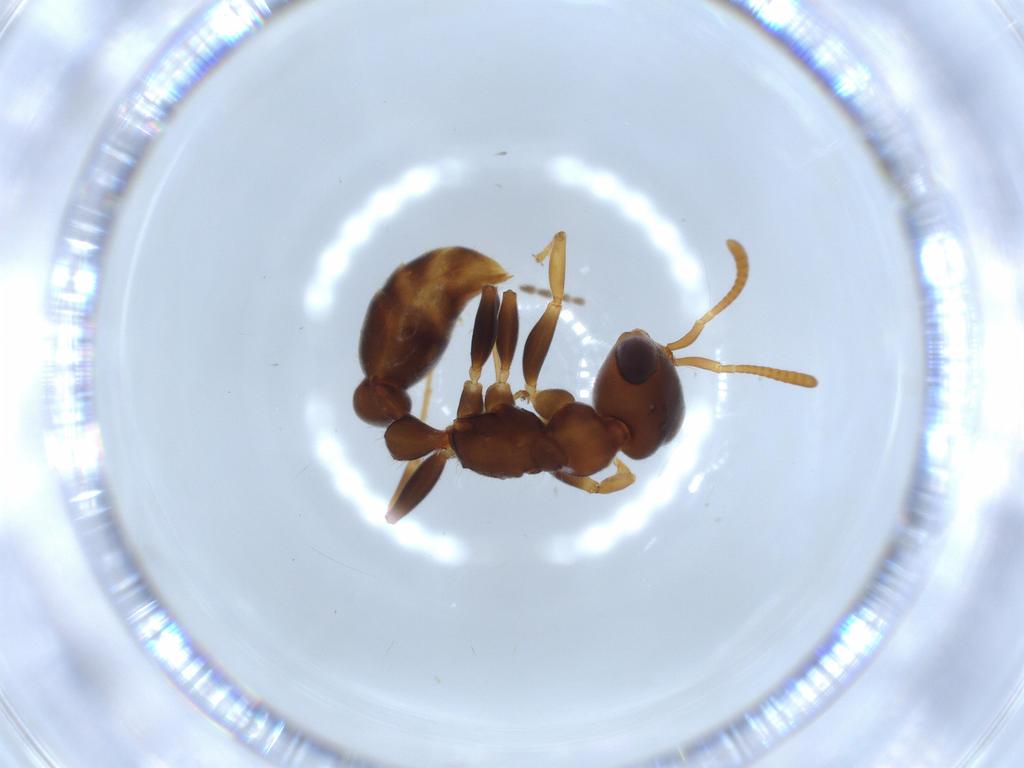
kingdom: Animalia
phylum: Arthropoda
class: Insecta
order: Hymenoptera
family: Formicidae
